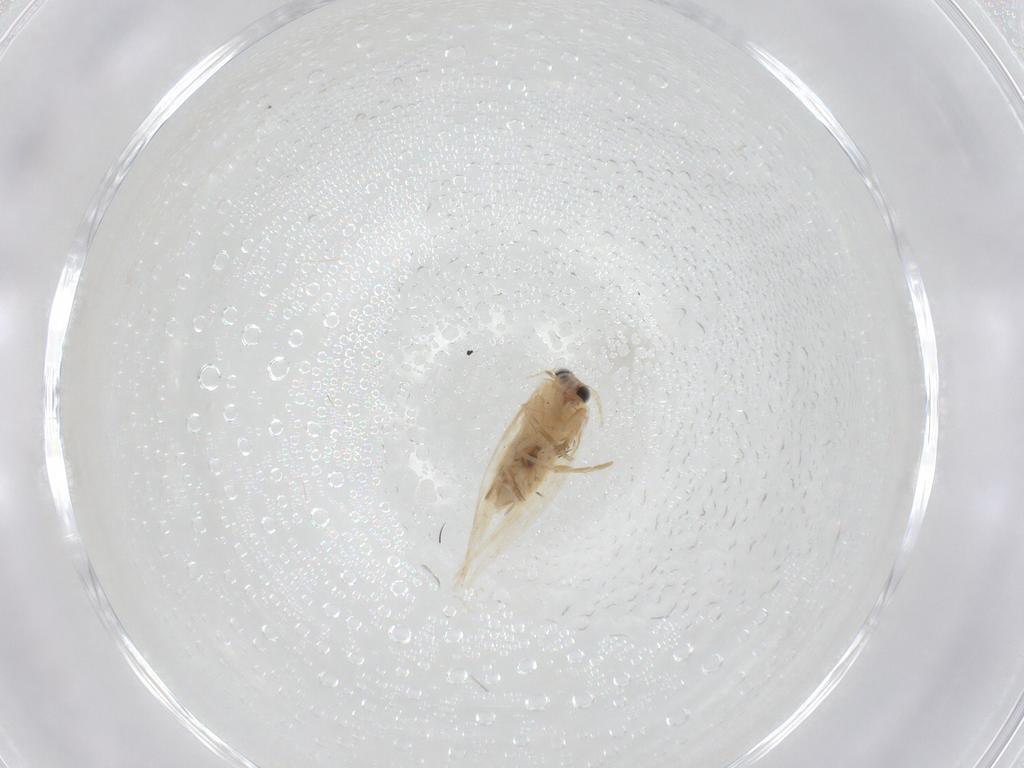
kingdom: Animalia
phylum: Arthropoda
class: Insecta
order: Lepidoptera
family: Nepticulidae
